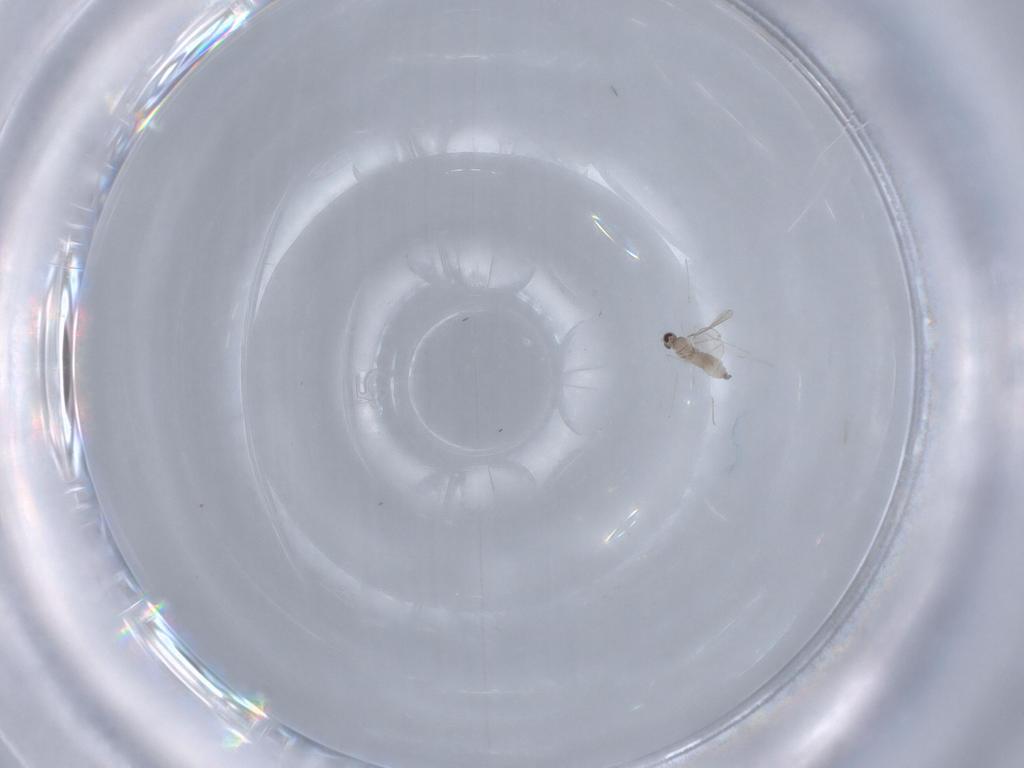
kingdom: Animalia
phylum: Arthropoda
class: Insecta
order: Diptera
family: Cecidomyiidae
